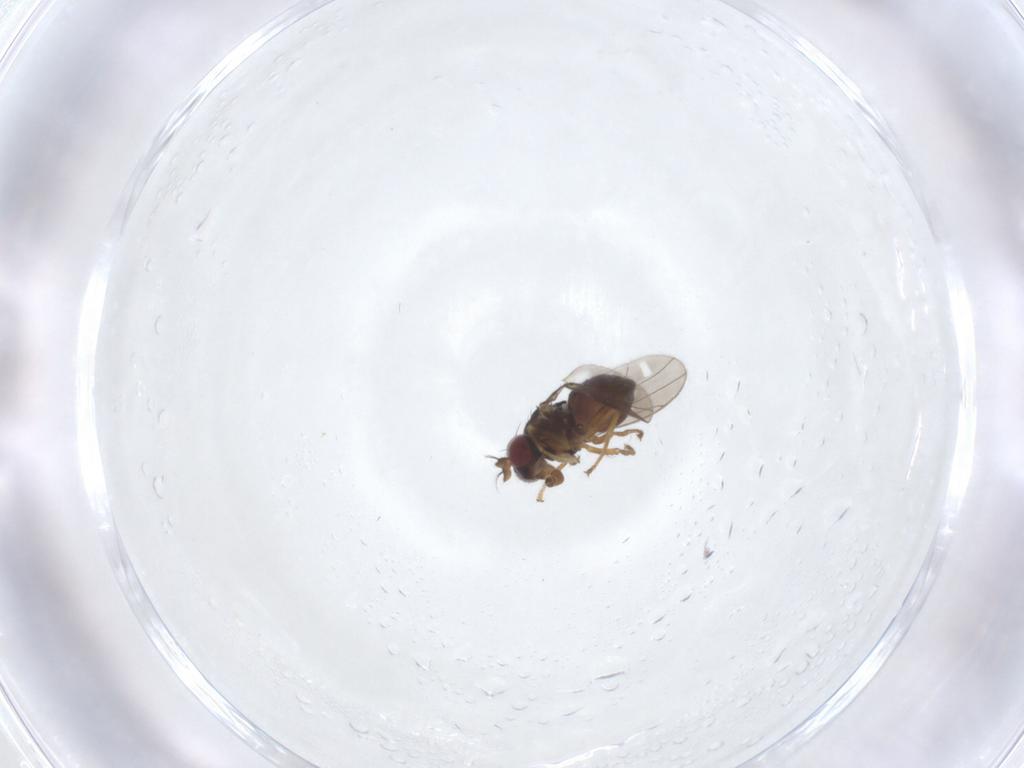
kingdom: Animalia
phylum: Arthropoda
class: Insecta
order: Diptera
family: Ephydridae
